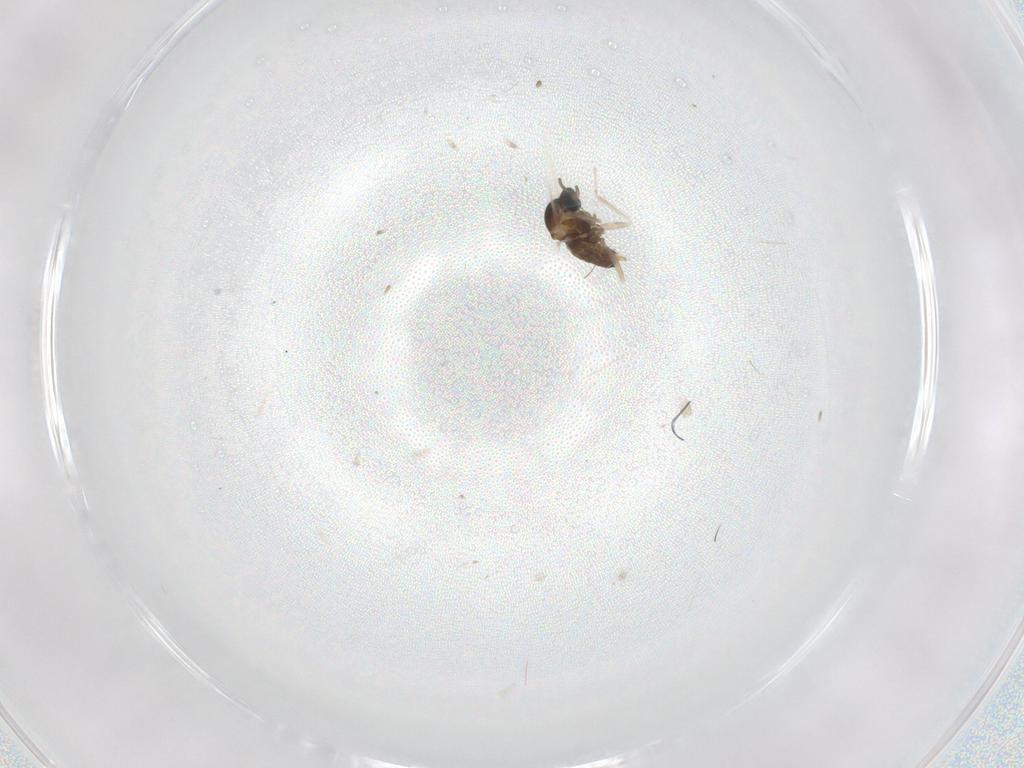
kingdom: Animalia
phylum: Arthropoda
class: Insecta
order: Diptera
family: Cecidomyiidae
